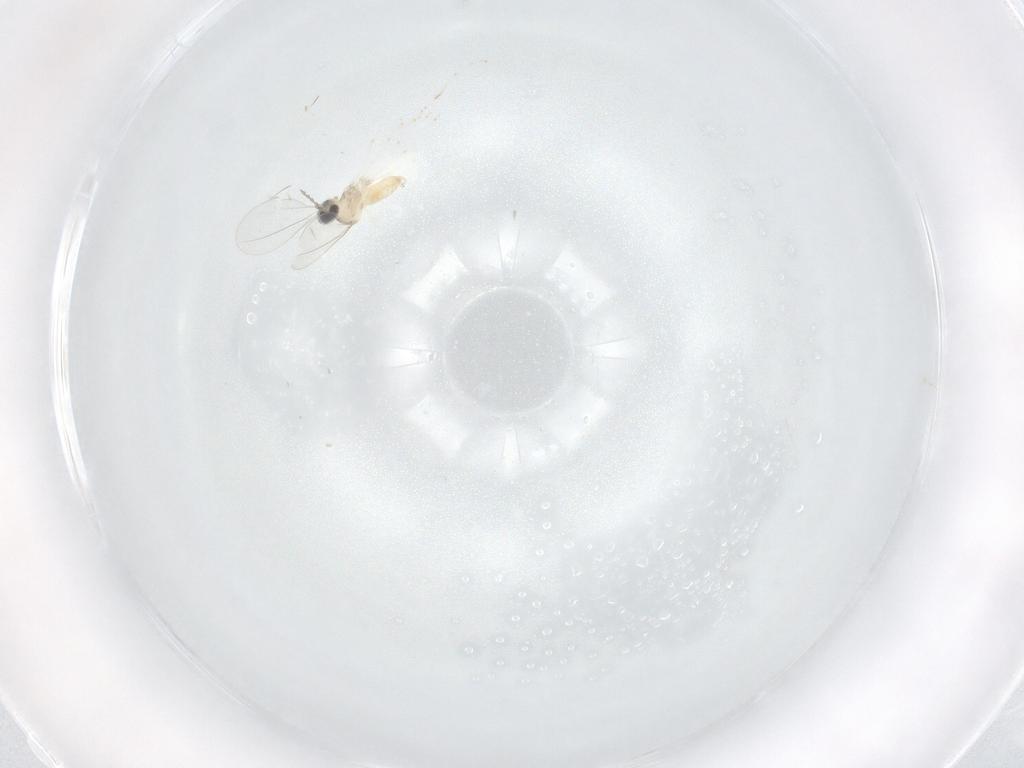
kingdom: Animalia
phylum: Arthropoda
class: Insecta
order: Diptera
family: Cecidomyiidae
